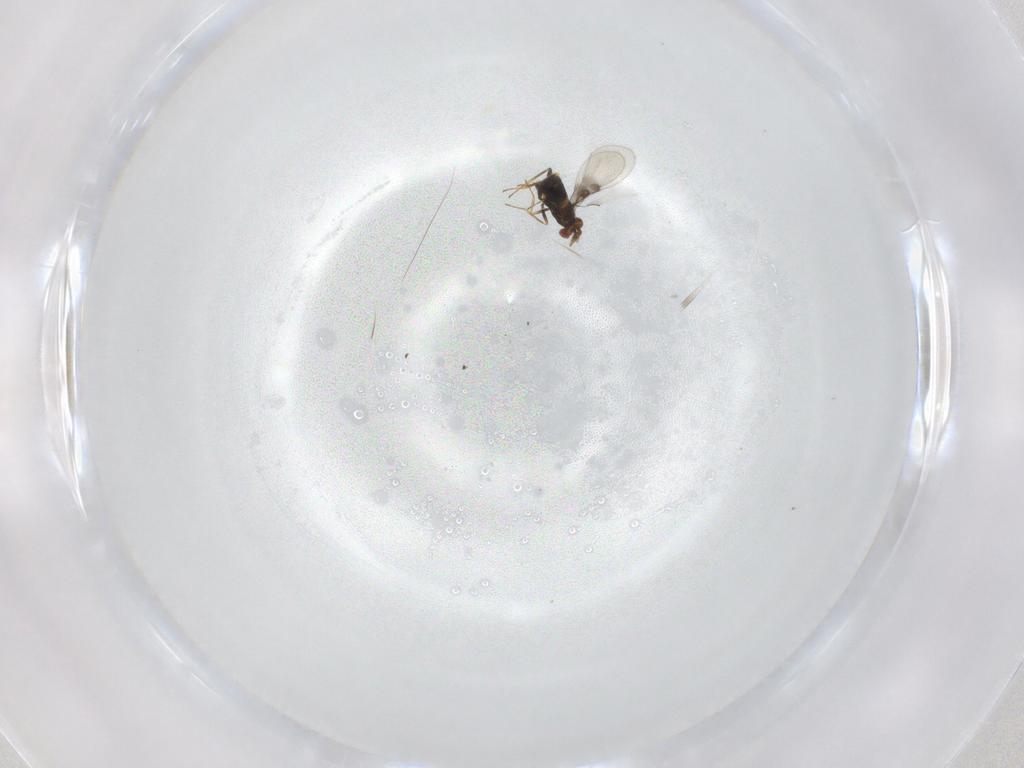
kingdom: Animalia
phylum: Arthropoda
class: Insecta
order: Hymenoptera
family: Trichogrammatidae
